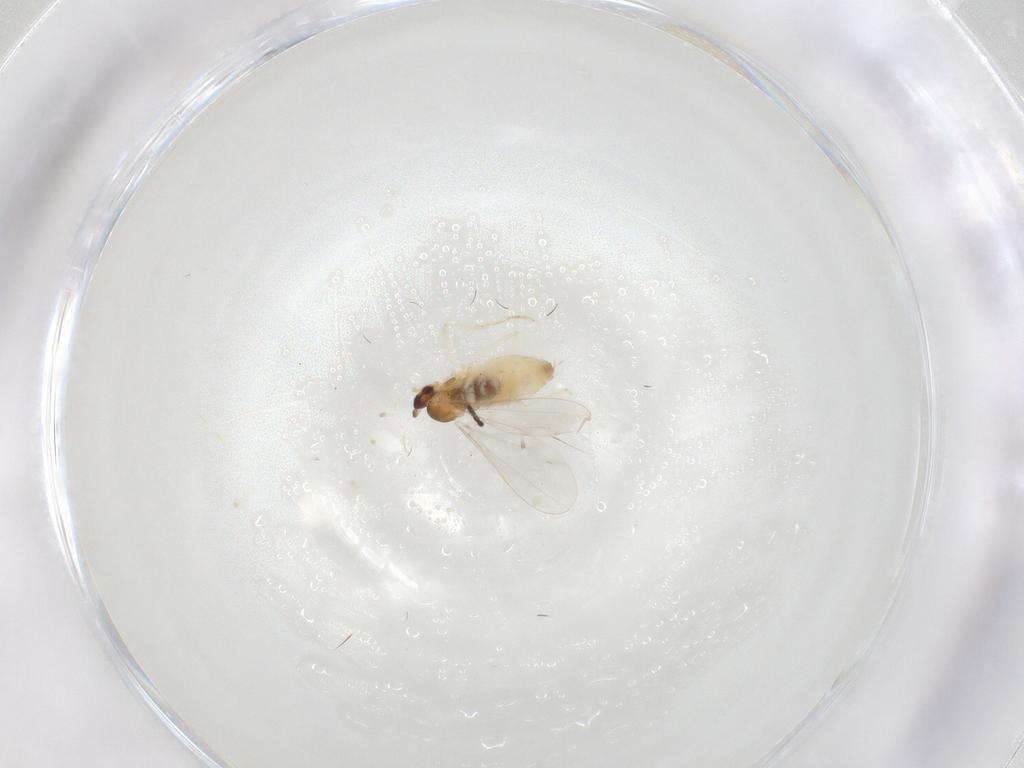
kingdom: Animalia
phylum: Arthropoda
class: Insecta
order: Diptera
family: Cecidomyiidae
